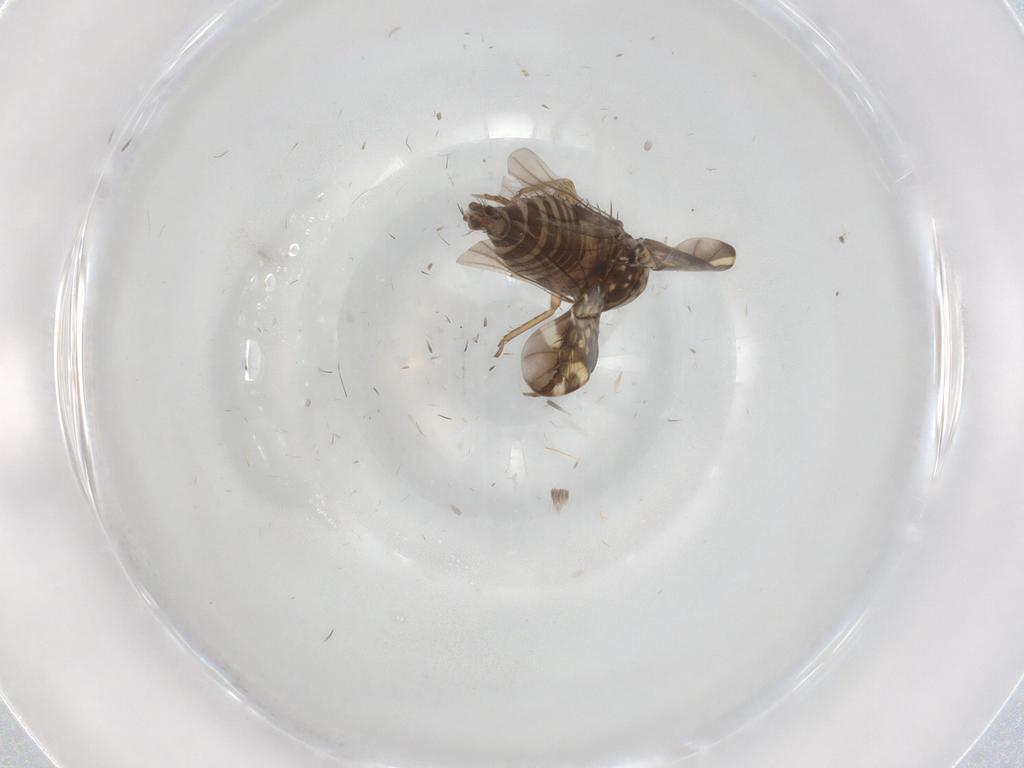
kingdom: Animalia
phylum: Arthropoda
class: Insecta
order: Hemiptera
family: Cicadellidae
